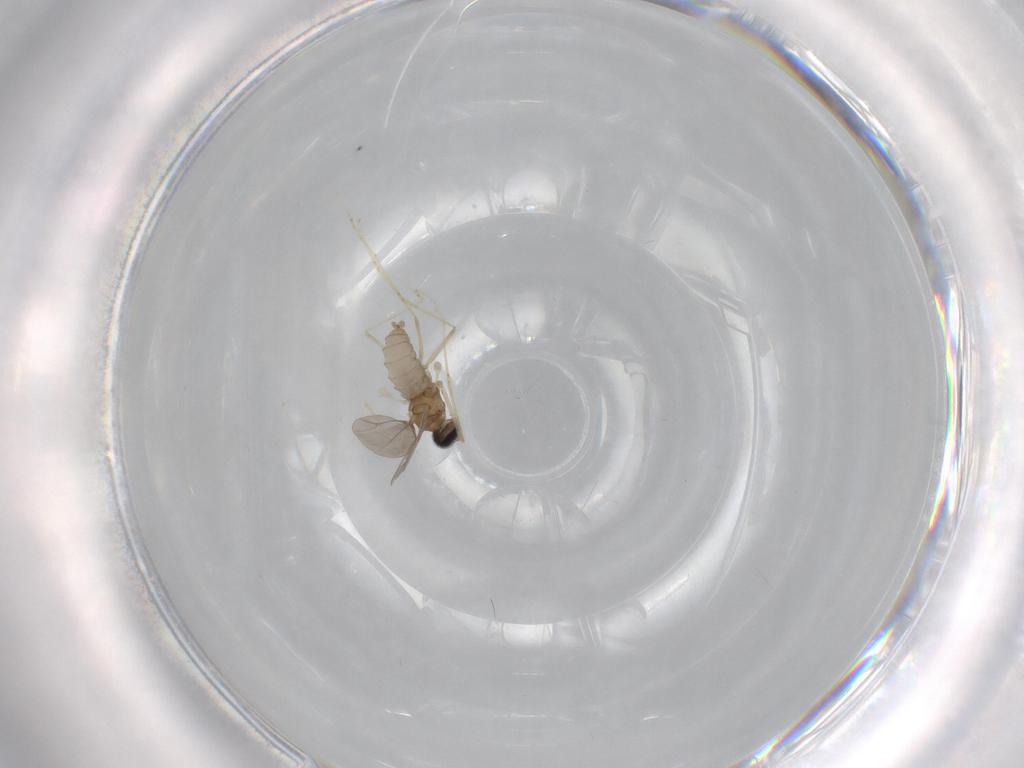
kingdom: Animalia
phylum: Arthropoda
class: Insecta
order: Diptera
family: Cecidomyiidae
